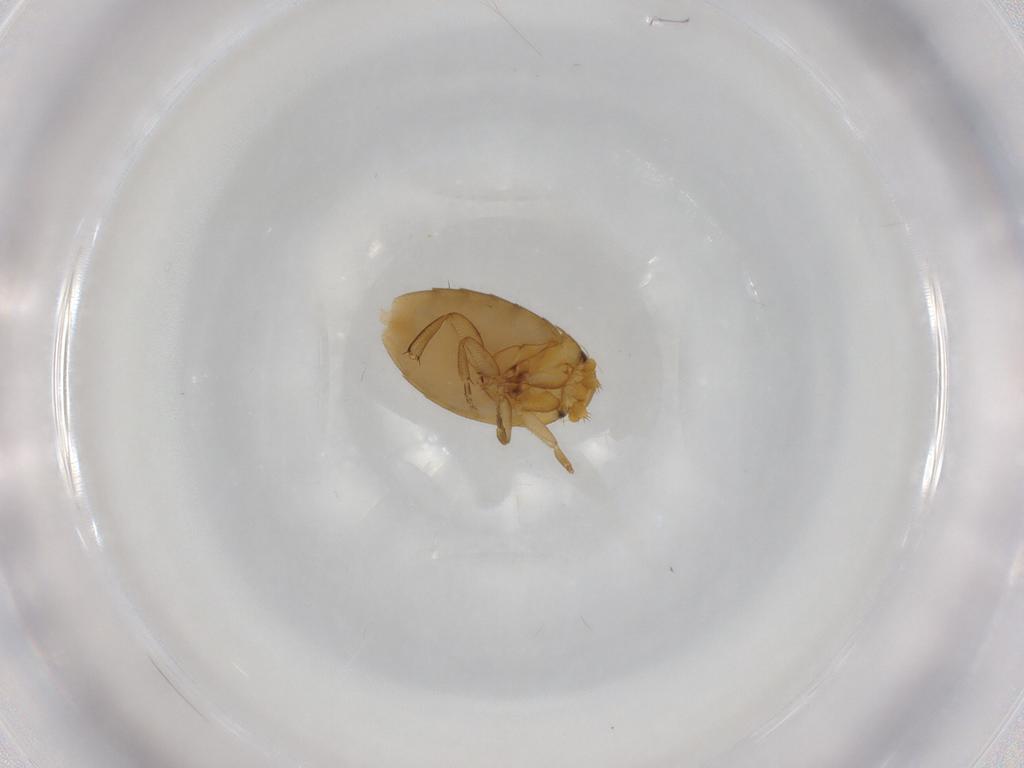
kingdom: Animalia
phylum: Arthropoda
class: Insecta
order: Diptera
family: Phoridae
